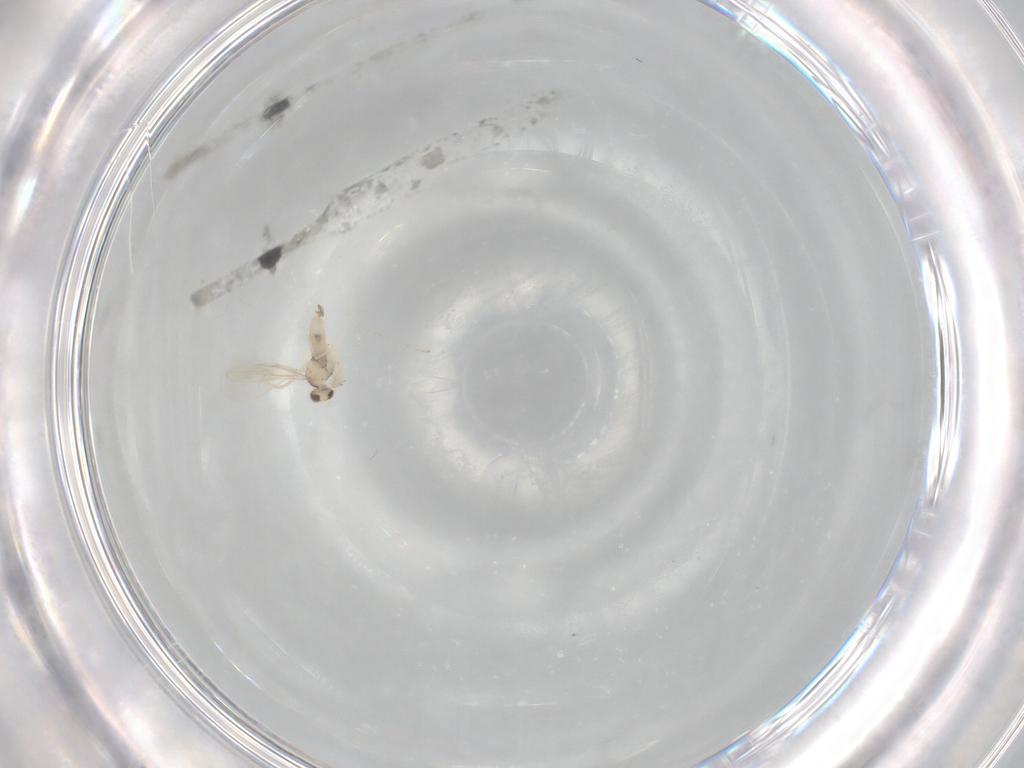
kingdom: Animalia
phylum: Arthropoda
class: Insecta
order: Diptera
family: Cecidomyiidae
